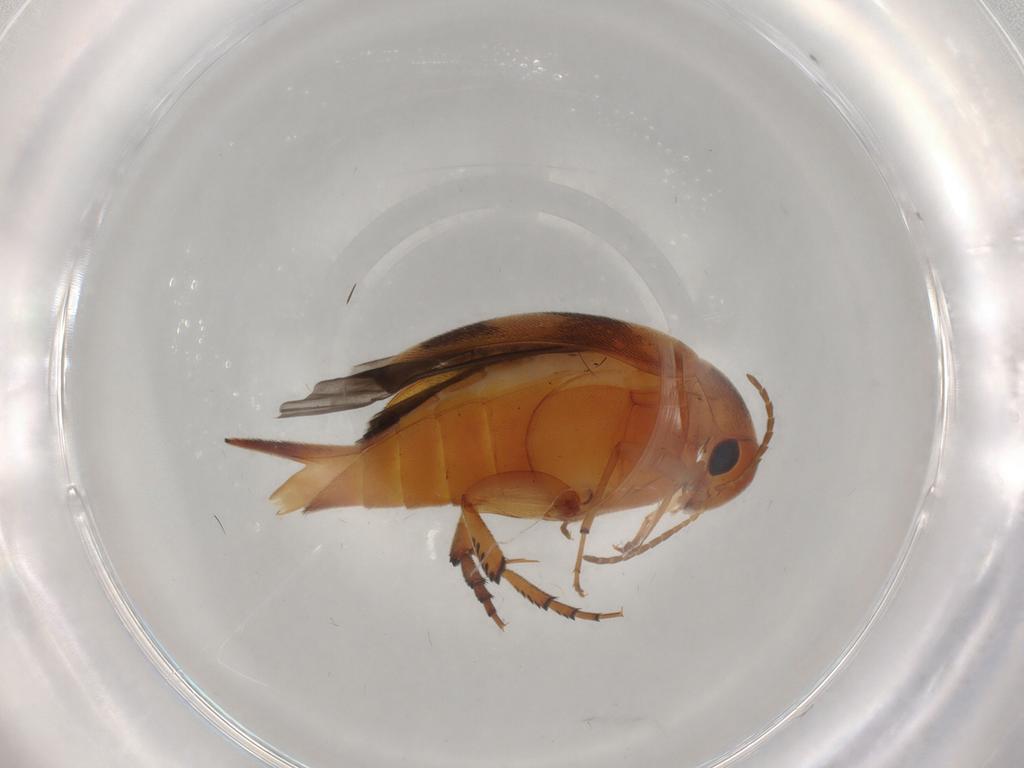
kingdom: Animalia
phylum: Arthropoda
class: Insecta
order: Coleoptera
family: Mordellidae
